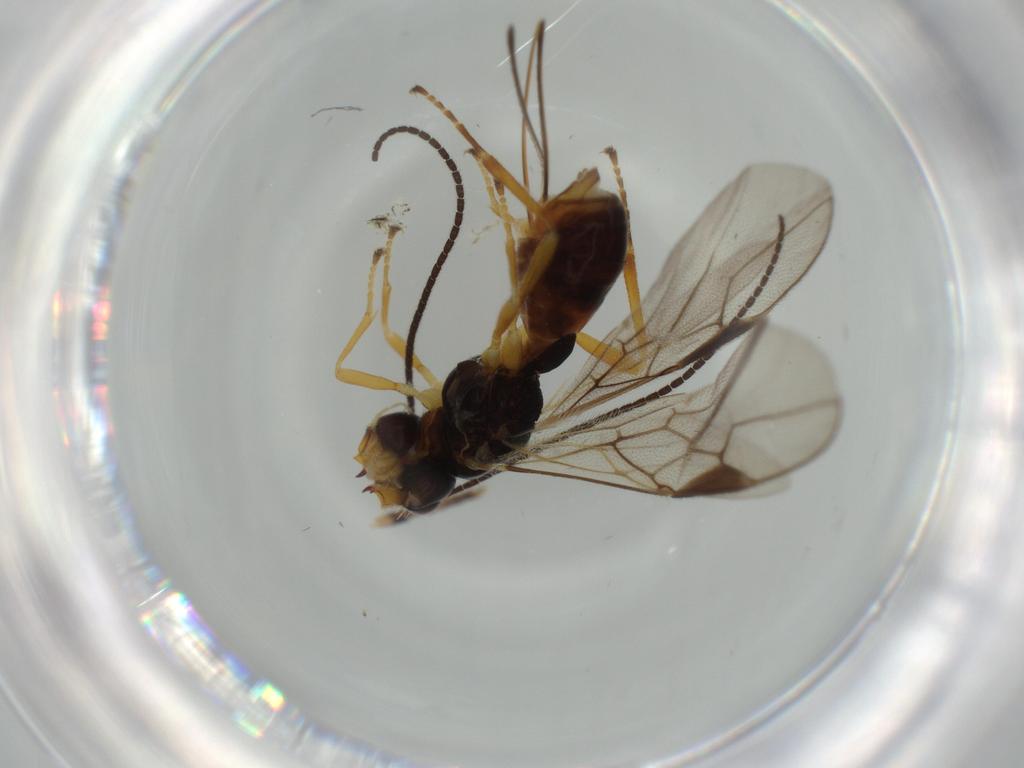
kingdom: Animalia
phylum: Arthropoda
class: Insecta
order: Hymenoptera
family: Braconidae
